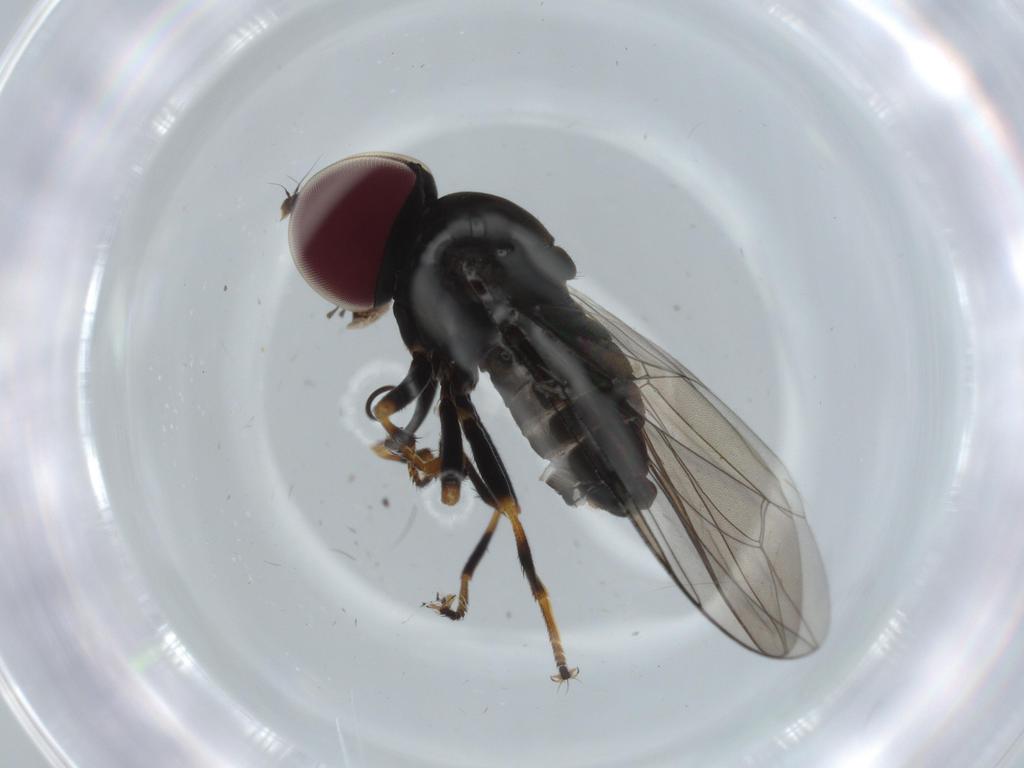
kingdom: Animalia
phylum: Arthropoda
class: Insecta
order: Diptera
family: Pipunculidae
